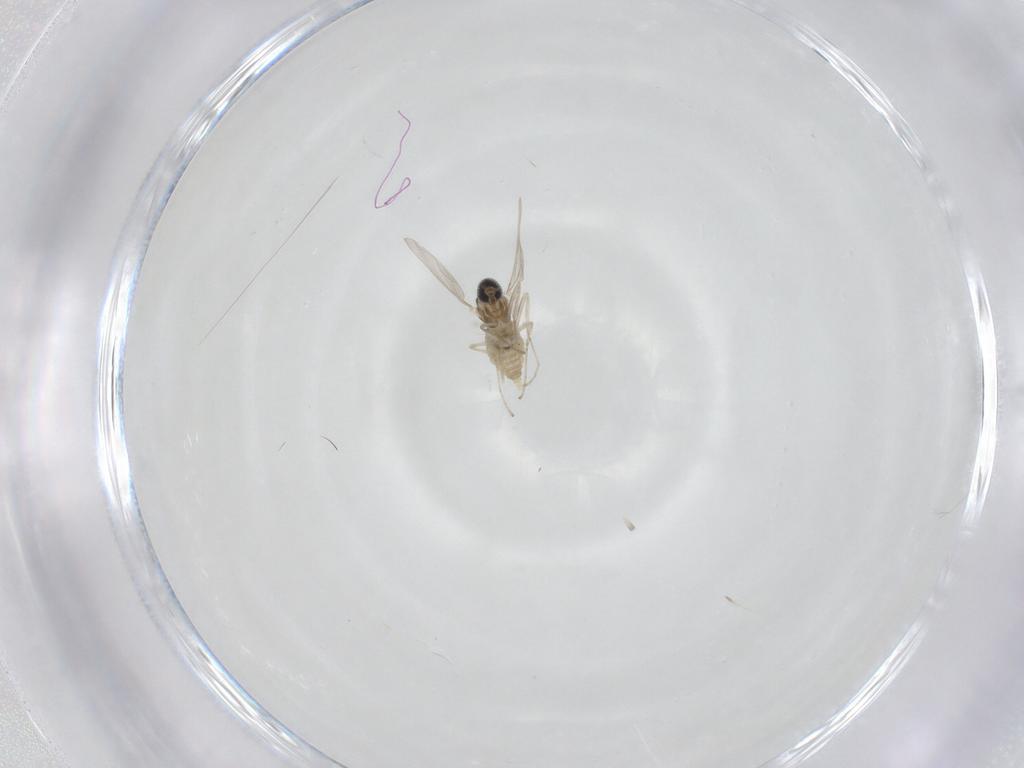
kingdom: Animalia
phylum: Arthropoda
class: Insecta
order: Diptera
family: Cecidomyiidae
